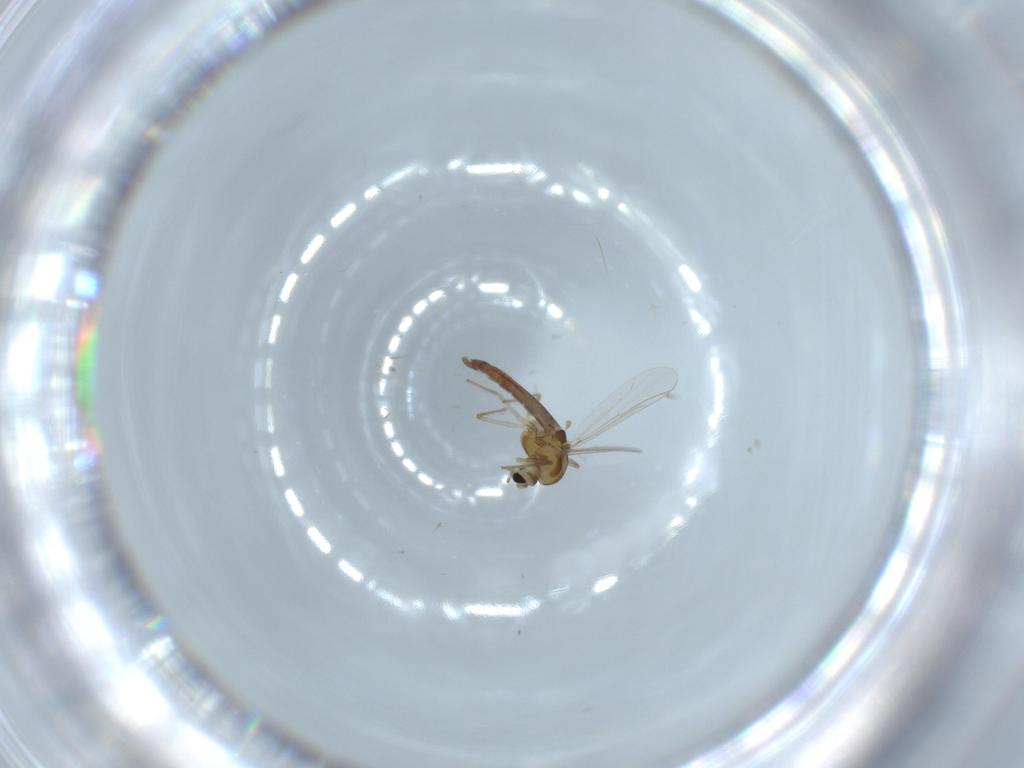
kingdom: Animalia
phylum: Arthropoda
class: Insecta
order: Diptera
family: Chironomidae
